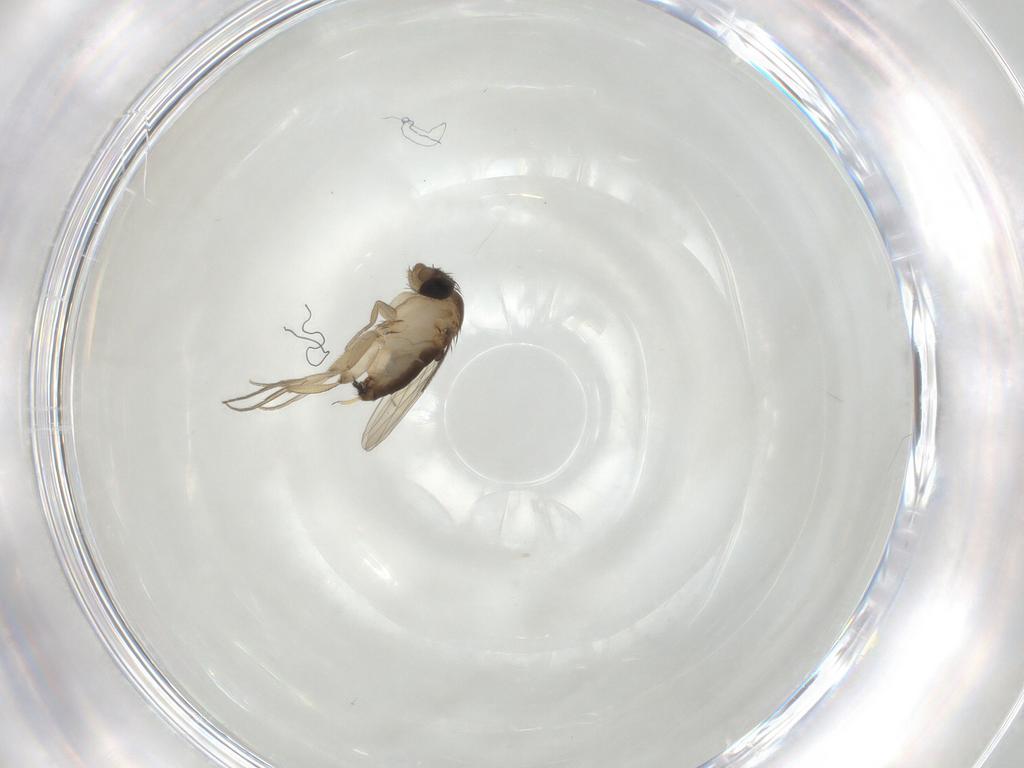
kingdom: Animalia
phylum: Arthropoda
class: Insecta
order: Diptera
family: Phoridae
